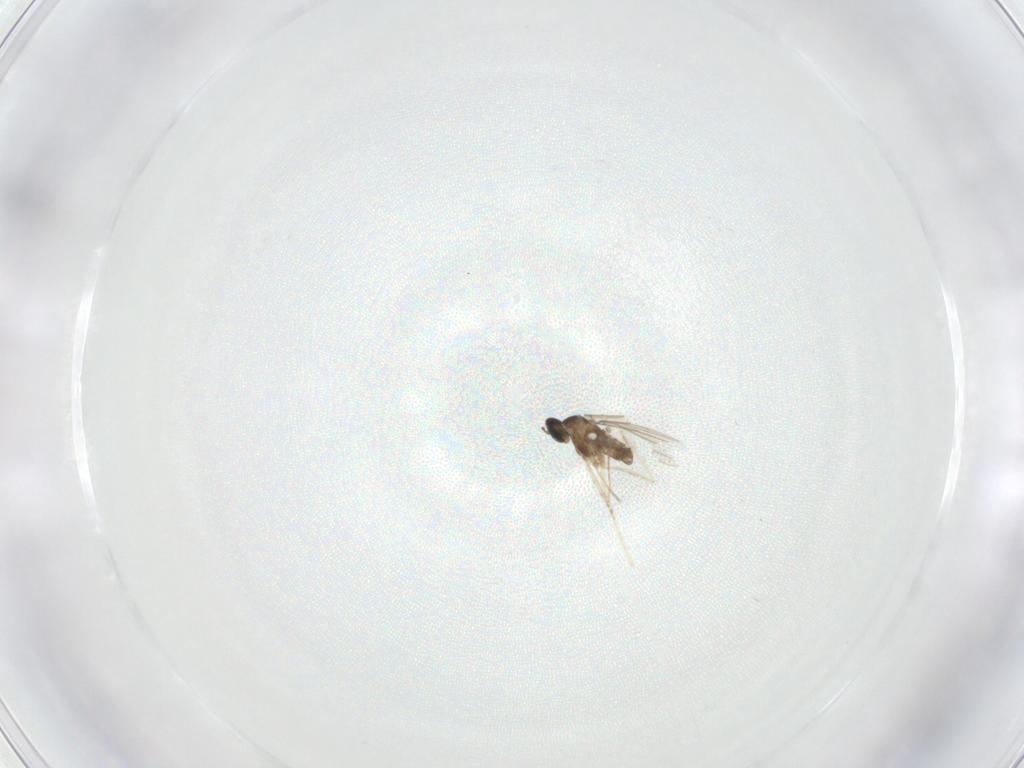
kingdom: Animalia
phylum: Arthropoda
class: Insecta
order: Diptera
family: Cecidomyiidae
